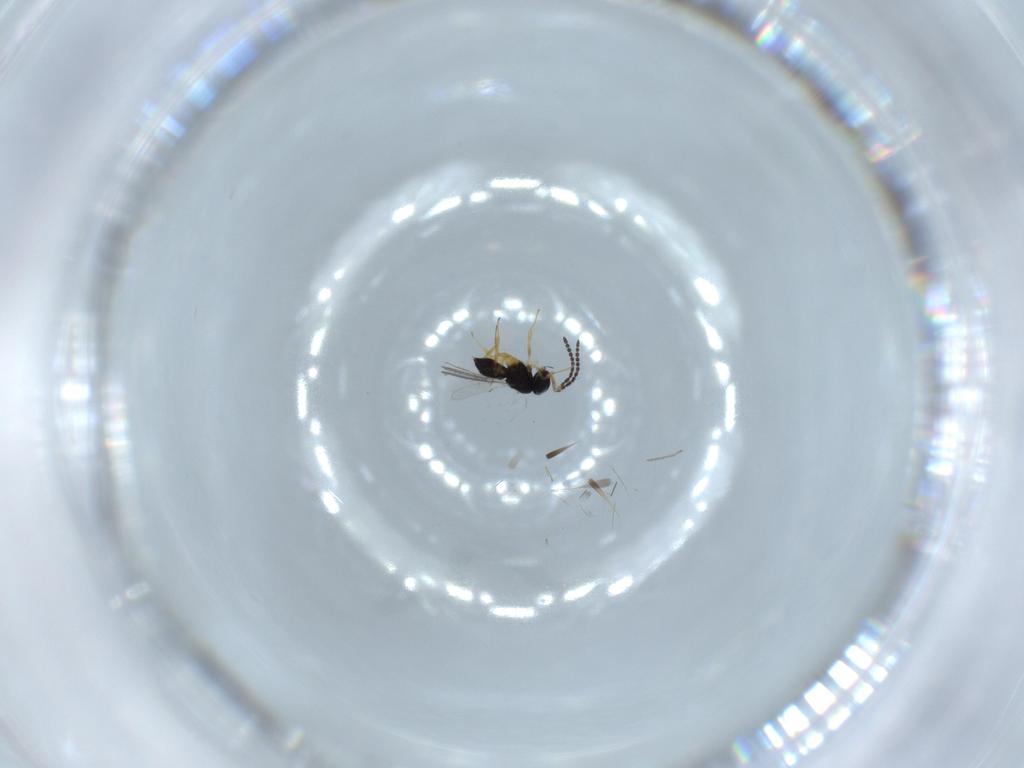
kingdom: Animalia
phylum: Arthropoda
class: Insecta
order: Hymenoptera
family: Scelionidae
